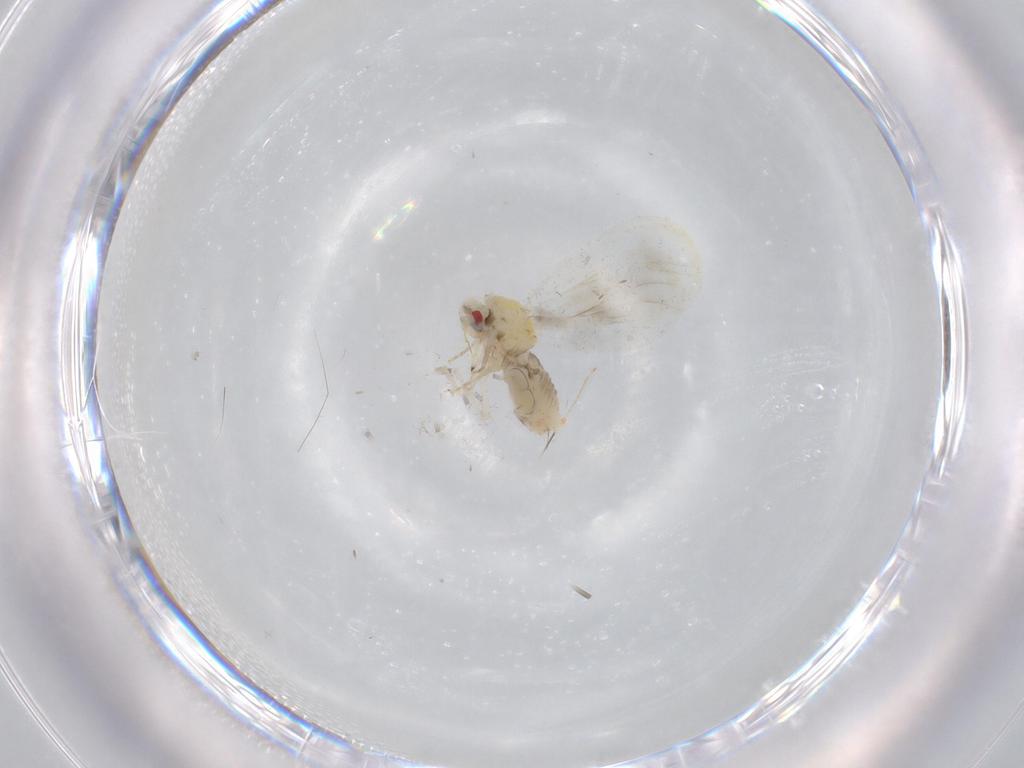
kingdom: Animalia
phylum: Arthropoda
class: Insecta
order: Hemiptera
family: Aleyrodidae
